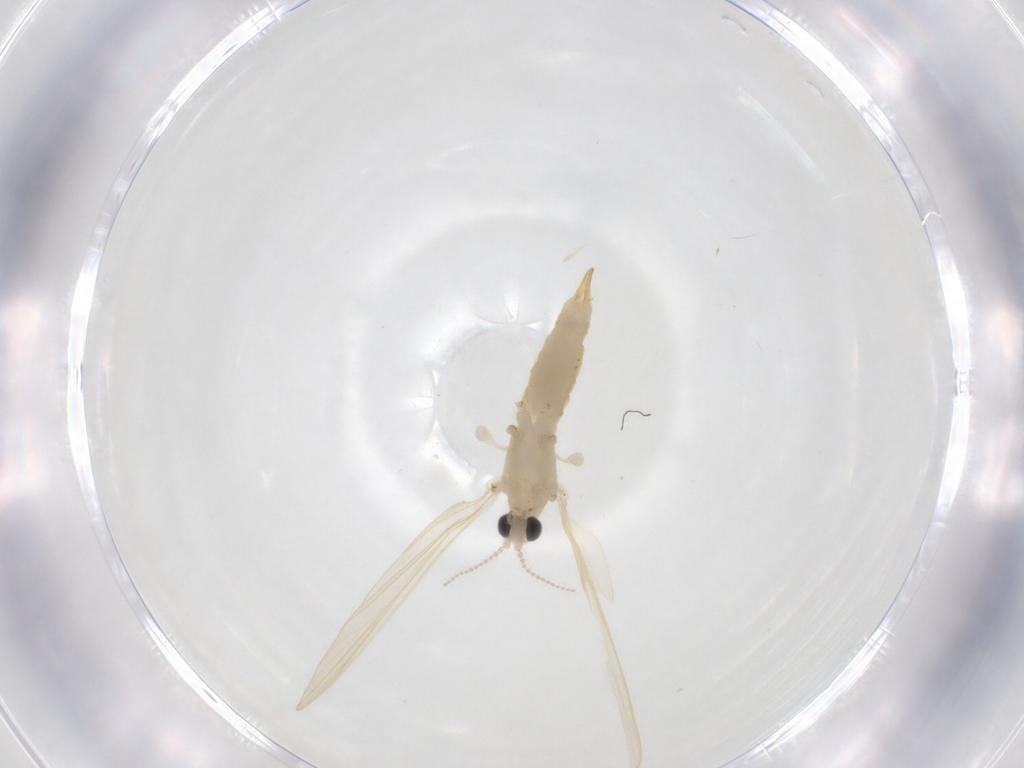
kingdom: Animalia
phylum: Arthropoda
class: Insecta
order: Diptera
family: Limoniidae
